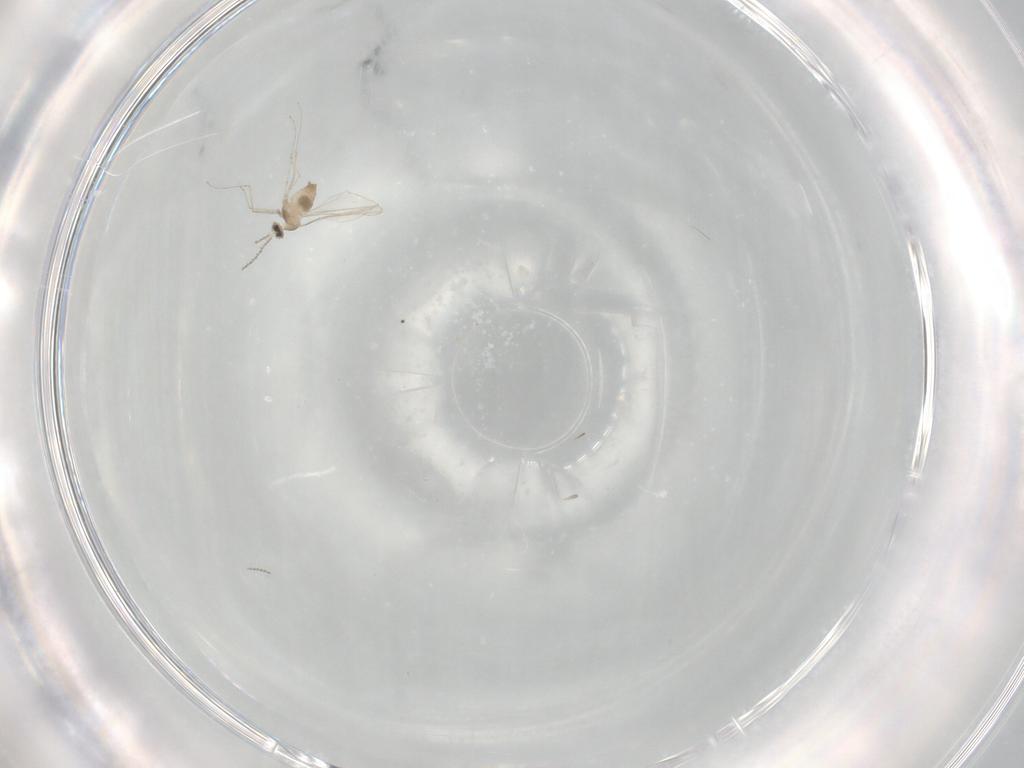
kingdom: Animalia
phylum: Arthropoda
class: Insecta
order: Diptera
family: Cecidomyiidae
